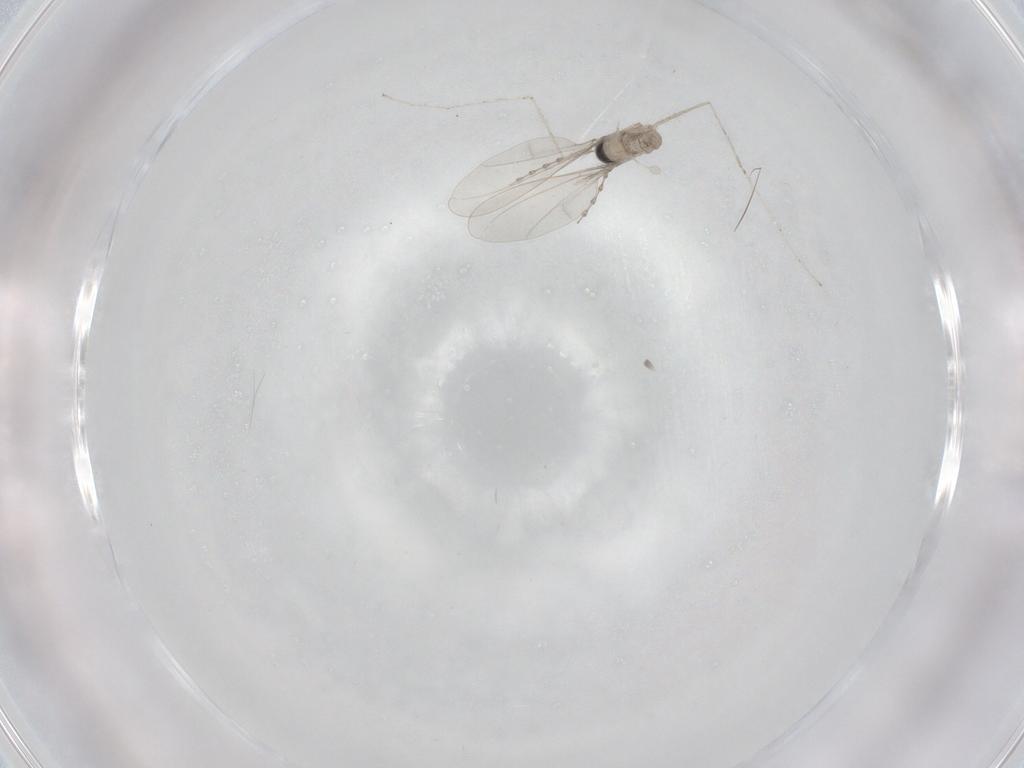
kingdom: Animalia
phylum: Arthropoda
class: Insecta
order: Diptera
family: Cecidomyiidae
